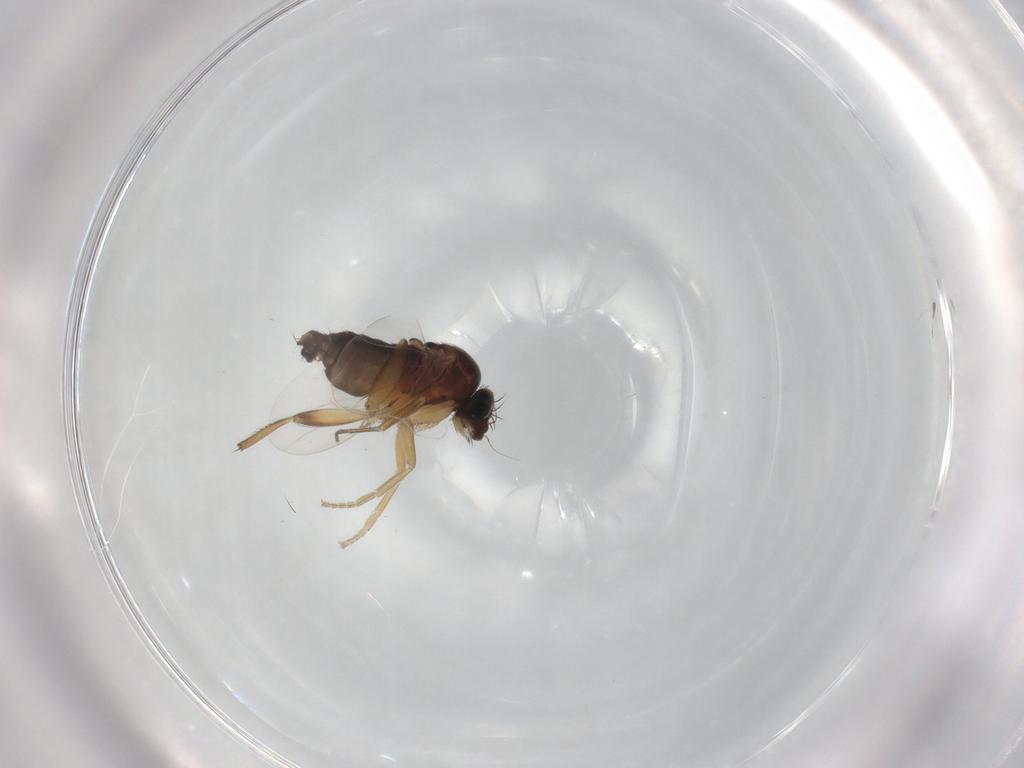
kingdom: Animalia
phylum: Arthropoda
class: Insecta
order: Diptera
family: Phoridae
